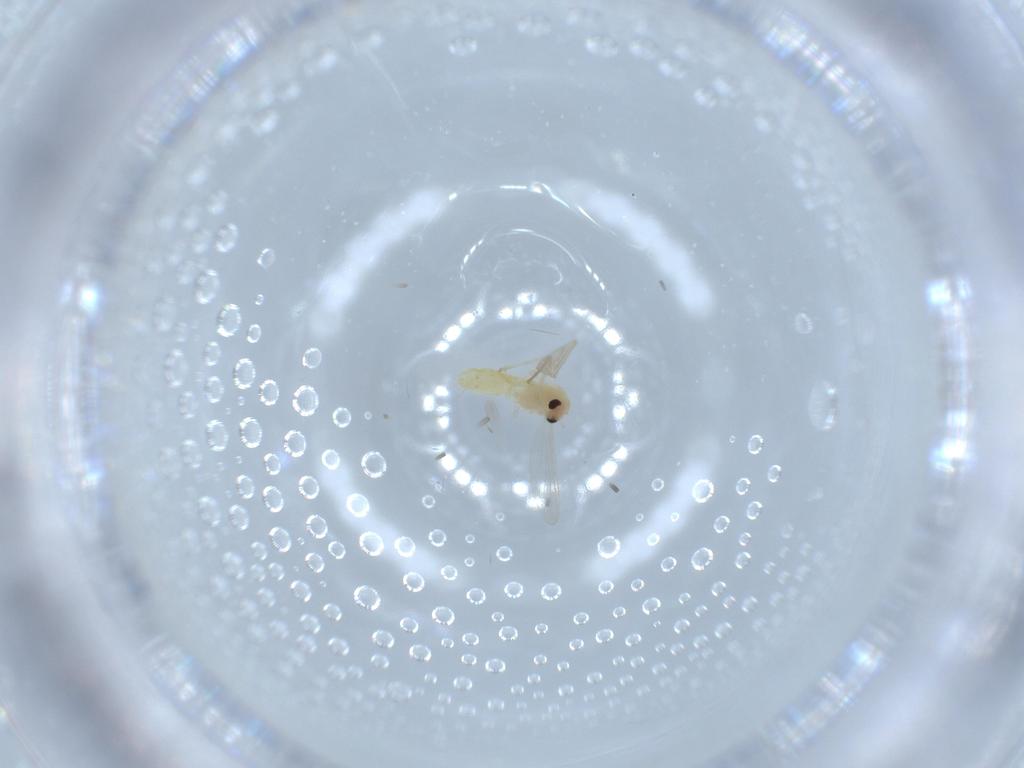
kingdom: Animalia
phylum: Arthropoda
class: Insecta
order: Diptera
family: Chironomidae
